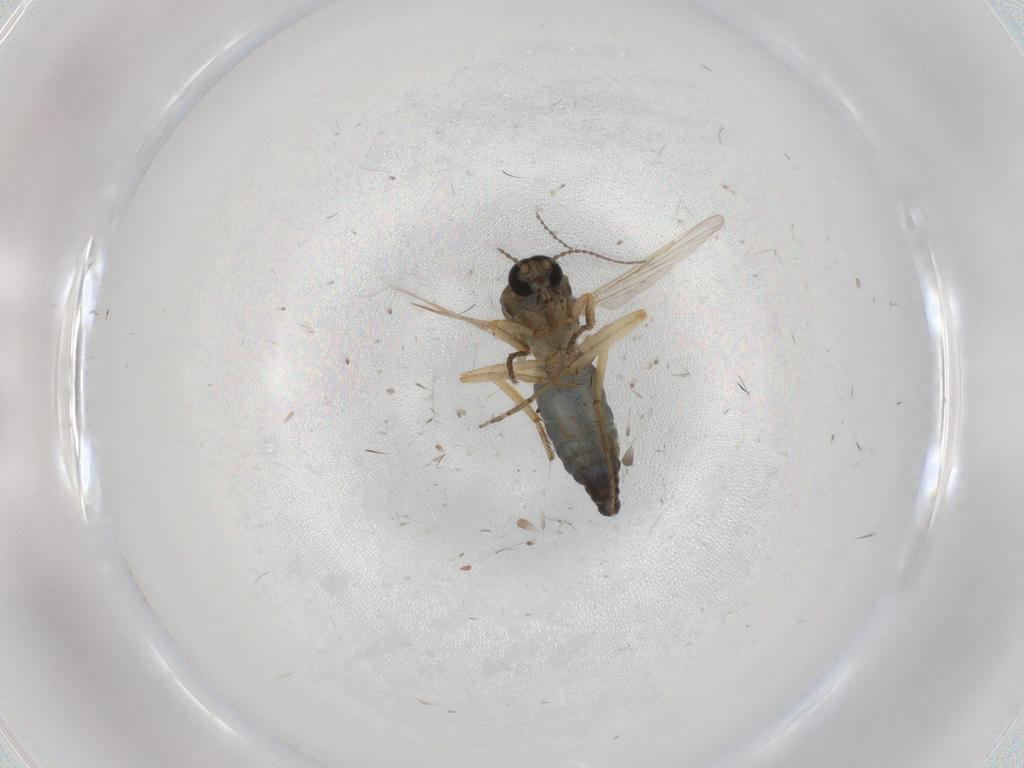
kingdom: Animalia
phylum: Arthropoda
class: Insecta
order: Diptera
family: Ceratopogonidae
